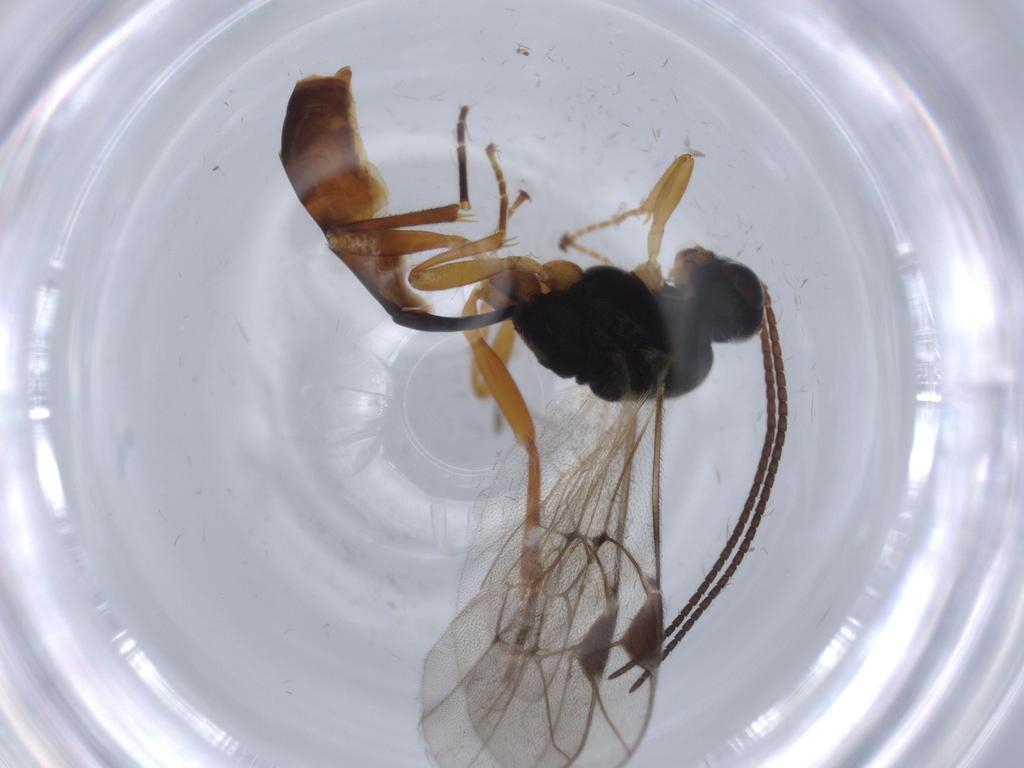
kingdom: Animalia
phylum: Arthropoda
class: Insecta
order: Hymenoptera
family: Ichneumonidae
